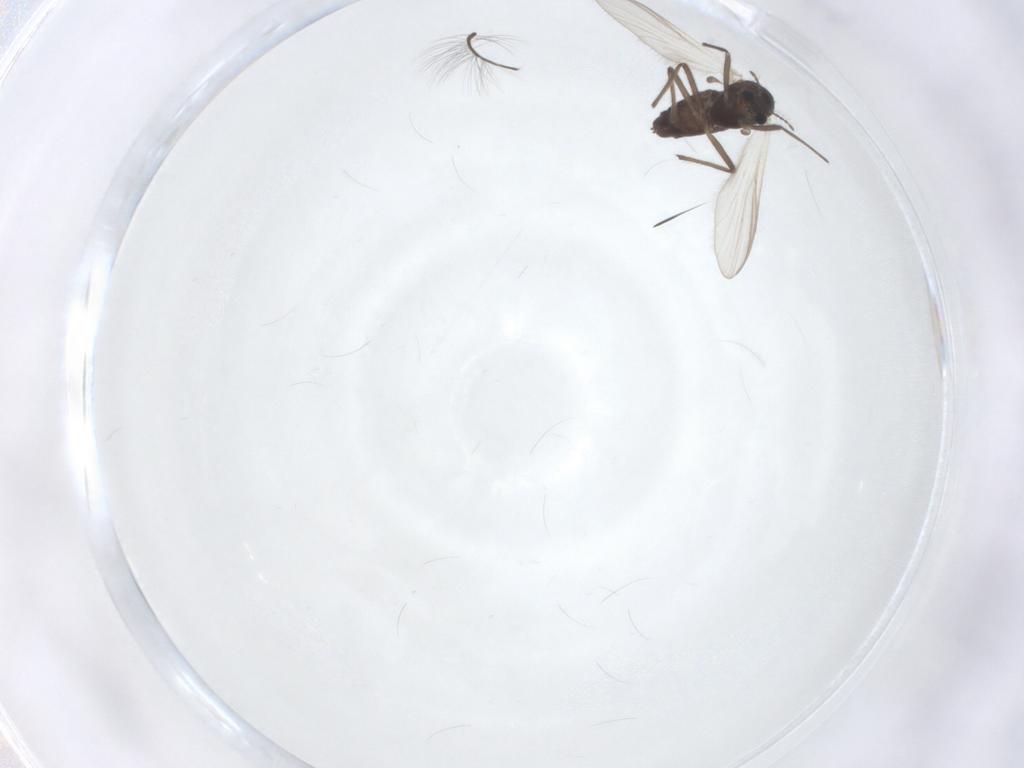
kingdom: Animalia
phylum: Arthropoda
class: Insecta
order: Diptera
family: Chironomidae
